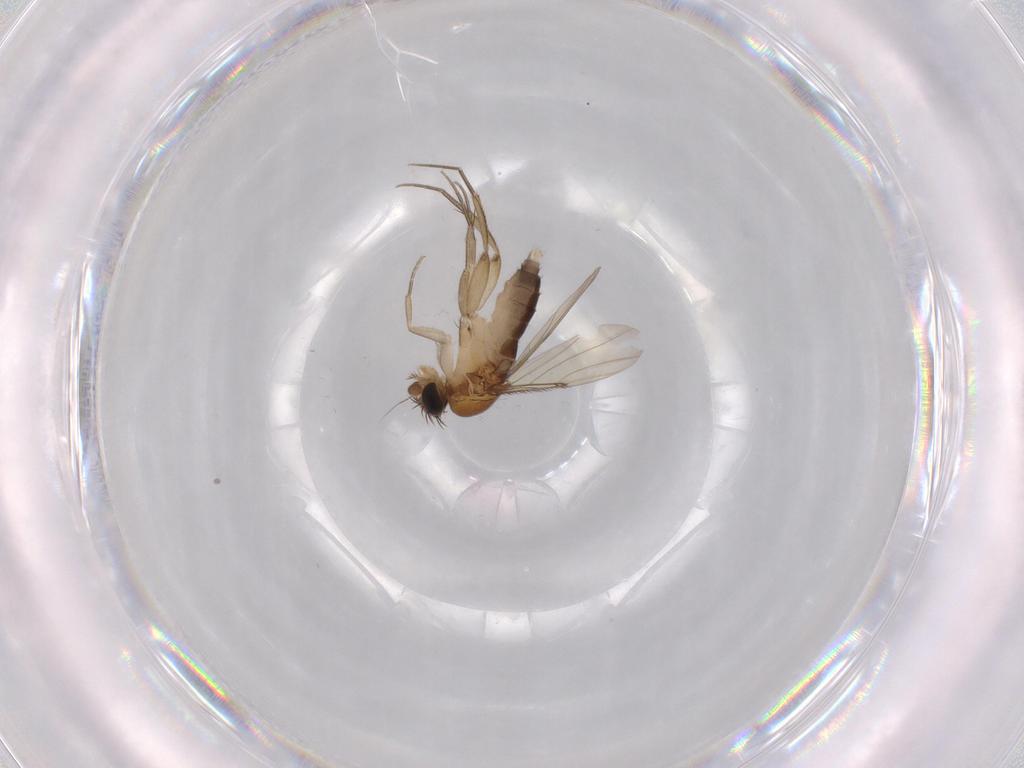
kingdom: Animalia
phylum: Arthropoda
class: Insecta
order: Diptera
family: Phoridae
